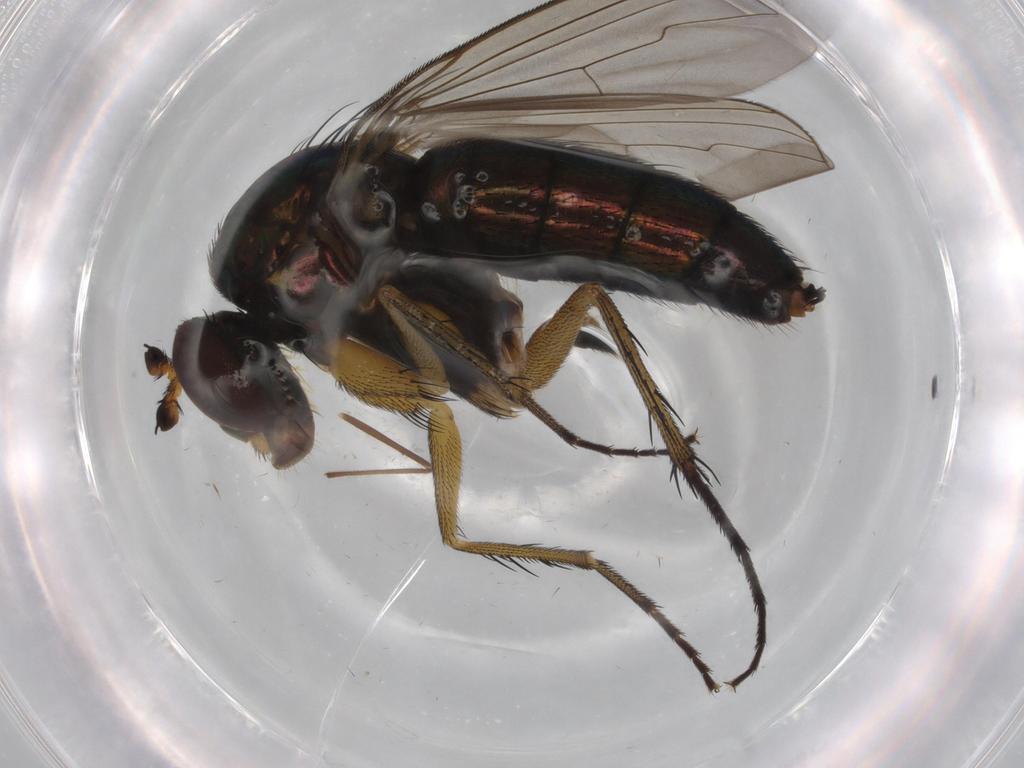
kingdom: Animalia
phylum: Arthropoda
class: Insecta
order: Diptera
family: Dolichopodidae
